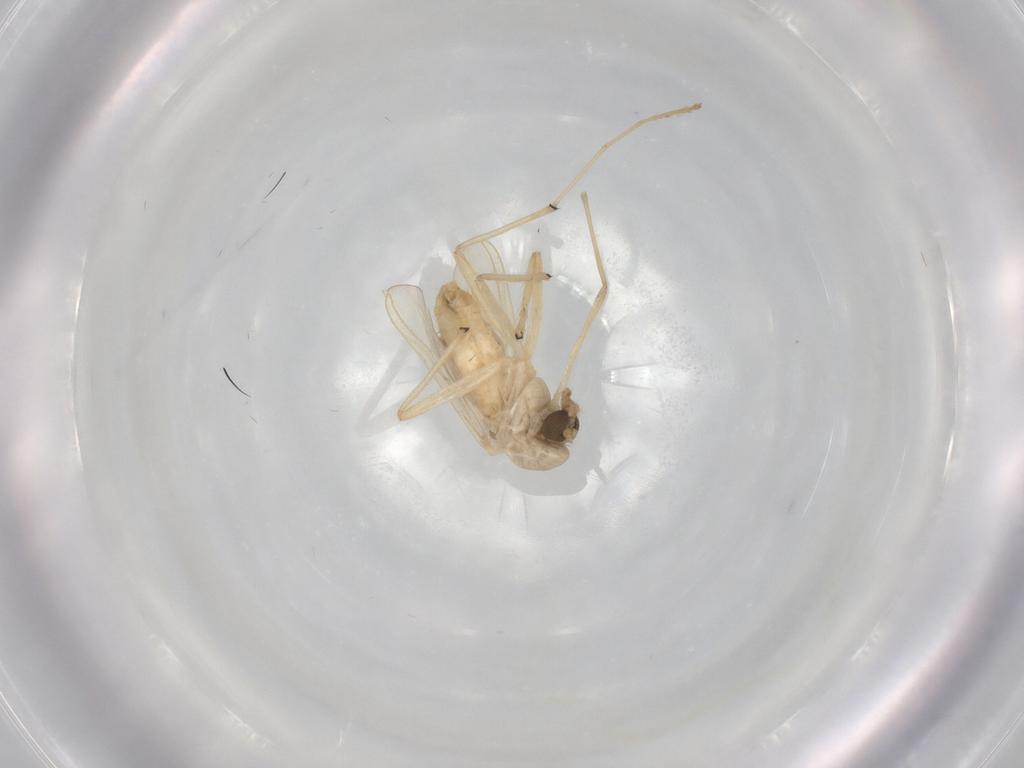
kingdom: Animalia
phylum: Arthropoda
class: Insecta
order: Diptera
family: Chironomidae
